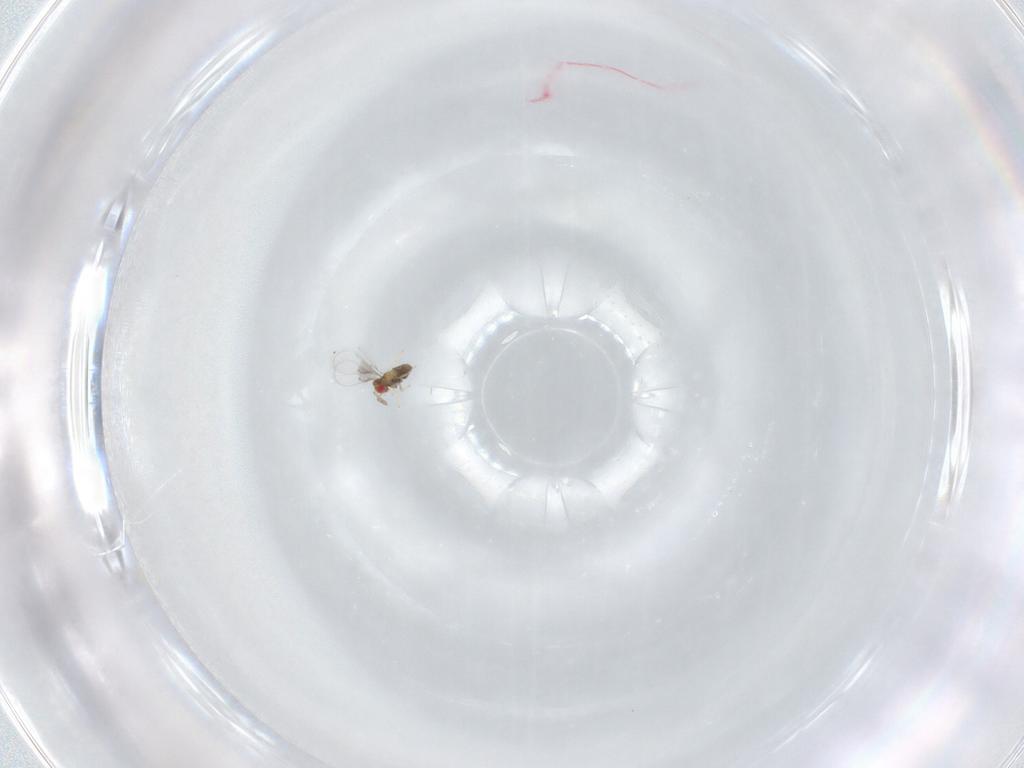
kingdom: Animalia
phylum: Arthropoda
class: Insecta
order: Hymenoptera
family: Trichogrammatidae
